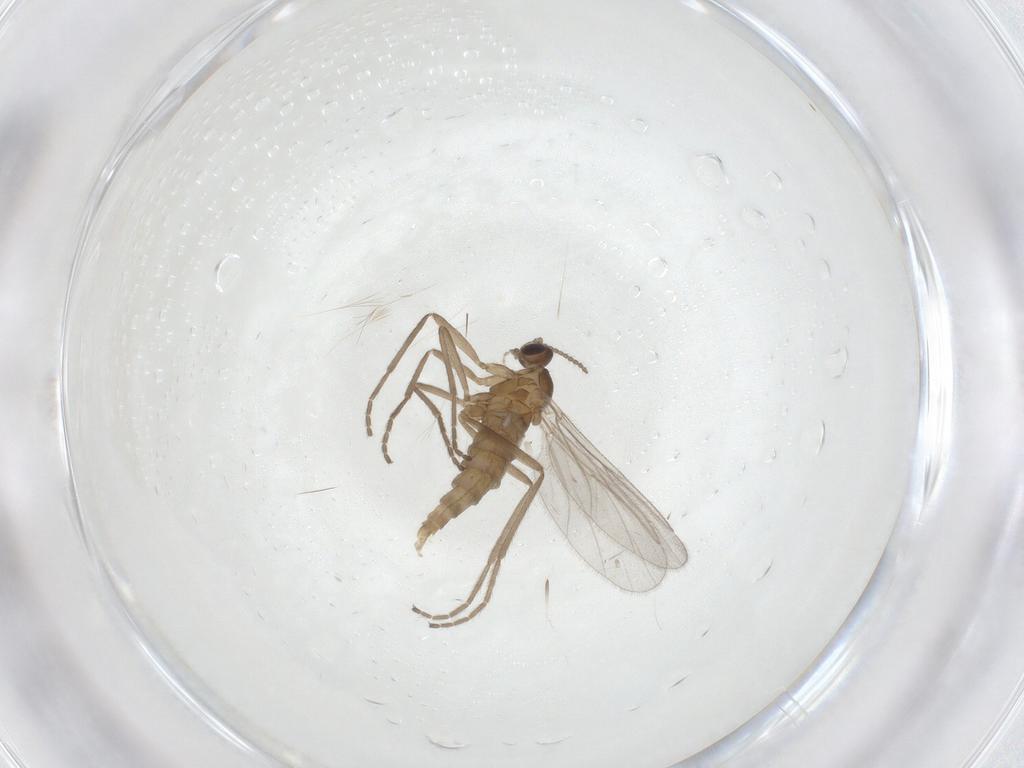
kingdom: Animalia
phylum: Arthropoda
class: Insecta
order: Diptera
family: Cecidomyiidae
